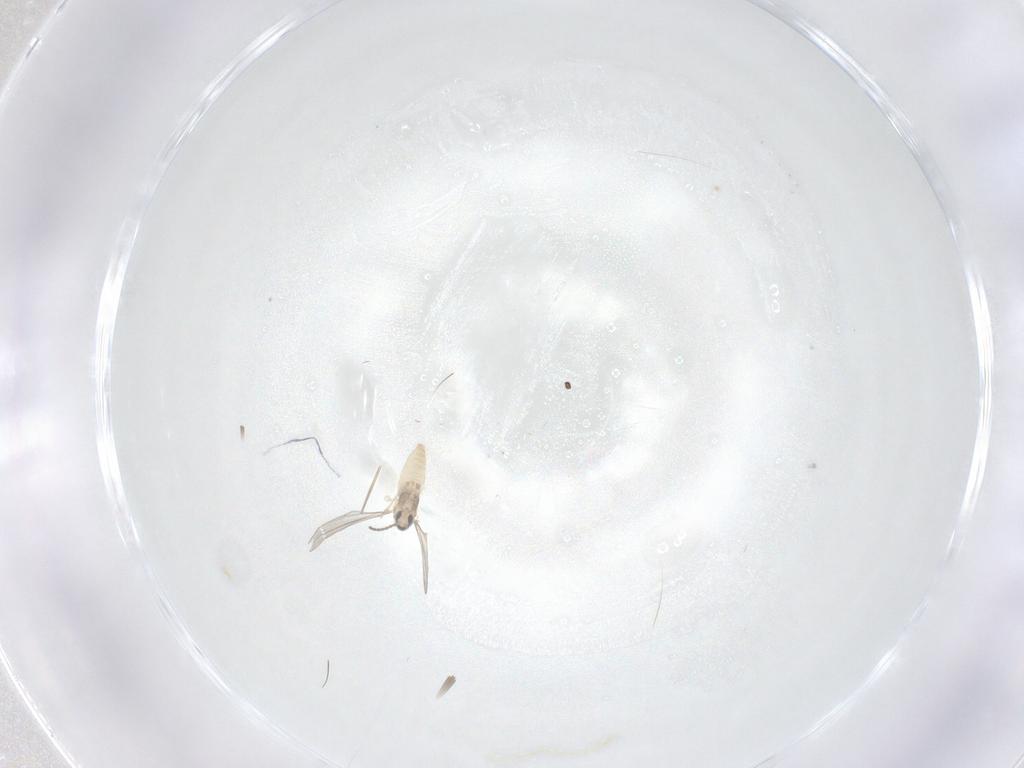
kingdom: Animalia
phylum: Arthropoda
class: Insecta
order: Diptera
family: Cecidomyiidae
